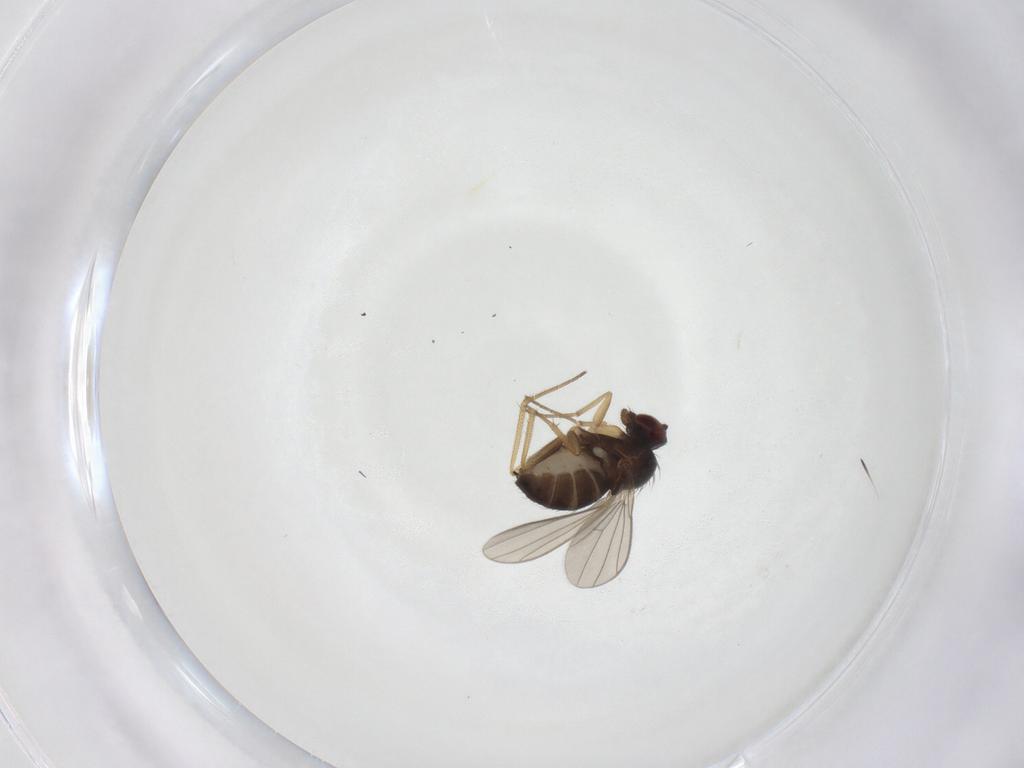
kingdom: Animalia
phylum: Arthropoda
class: Insecta
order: Diptera
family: Dolichopodidae
